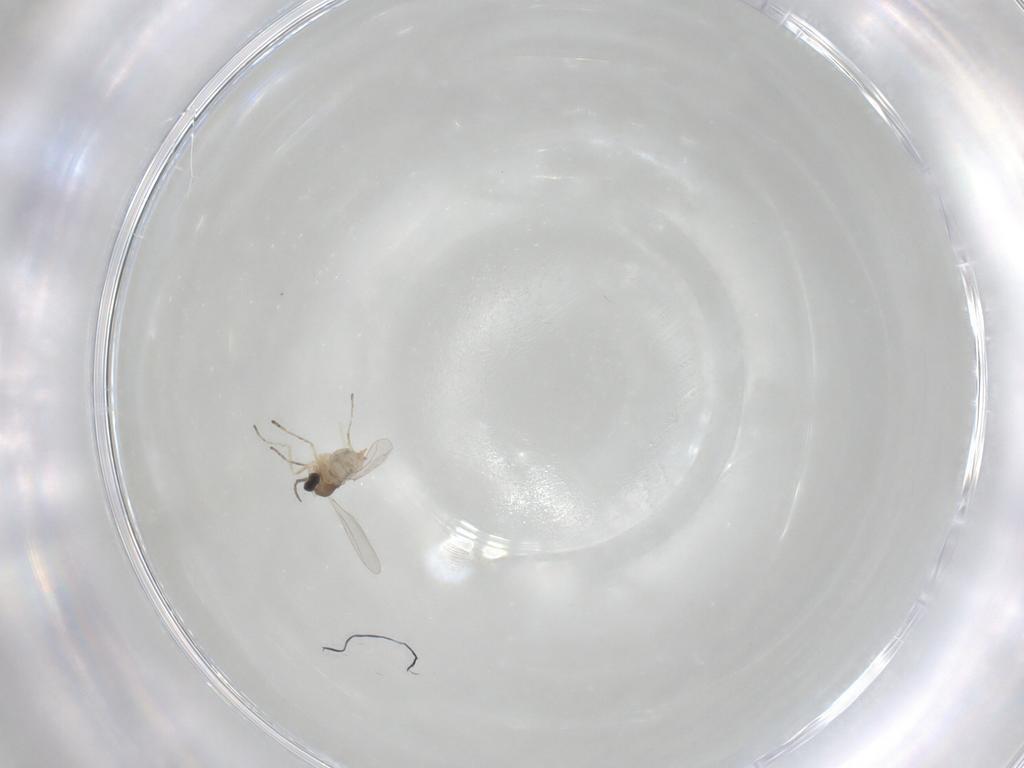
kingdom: Animalia
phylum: Arthropoda
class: Insecta
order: Diptera
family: Cecidomyiidae
